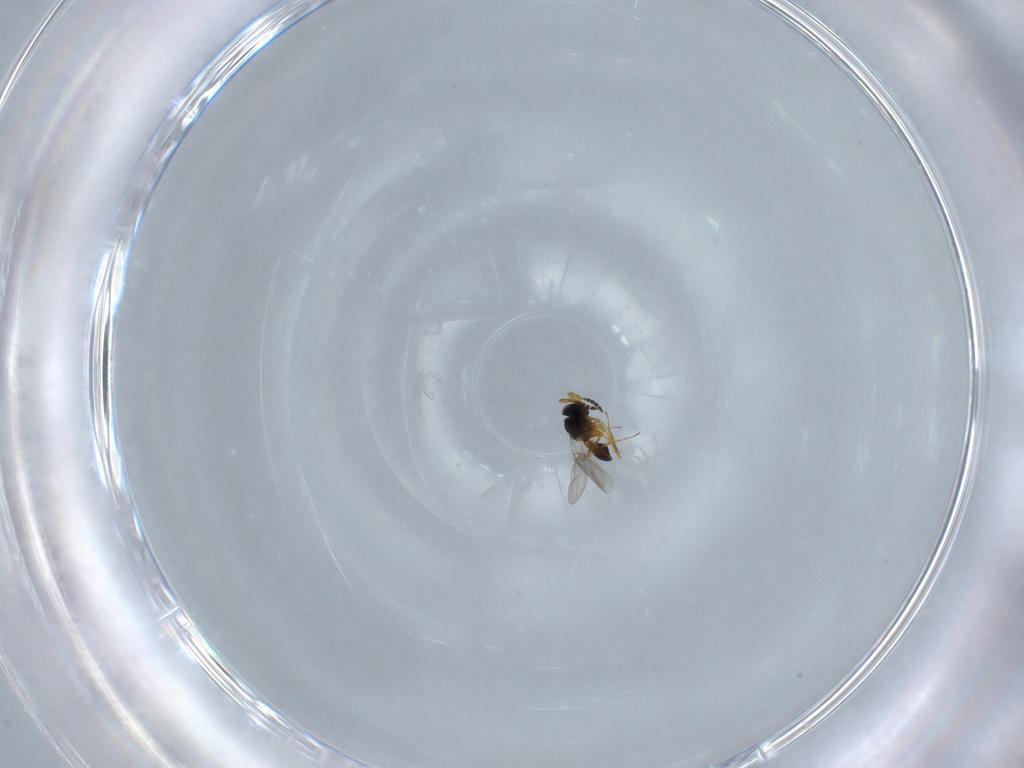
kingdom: Animalia
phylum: Arthropoda
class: Insecta
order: Hymenoptera
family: Platygastridae
